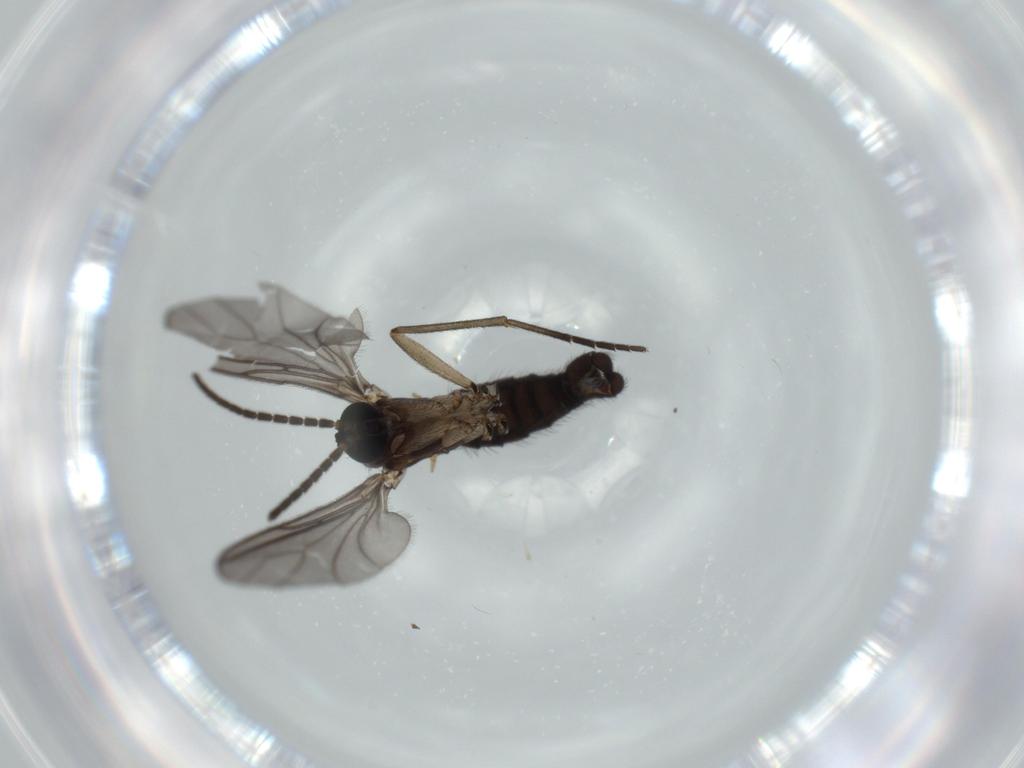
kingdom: Animalia
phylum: Arthropoda
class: Insecta
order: Diptera
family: Sciaridae
